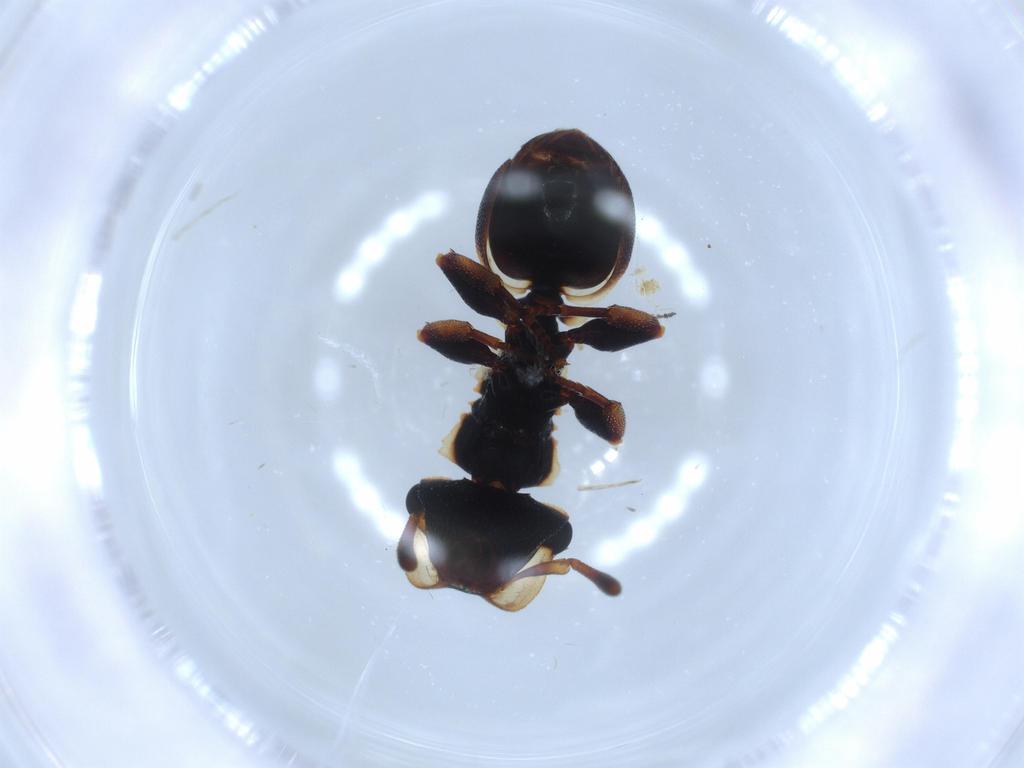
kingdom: Animalia
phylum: Arthropoda
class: Insecta
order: Hymenoptera
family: Formicidae
